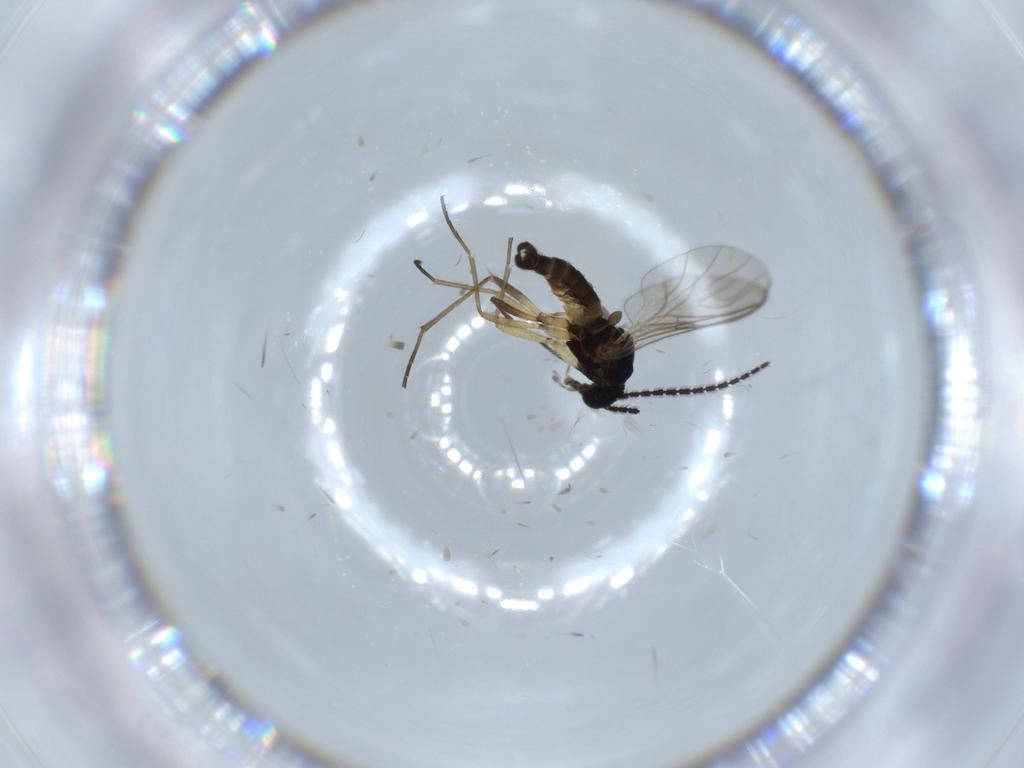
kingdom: Animalia
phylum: Arthropoda
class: Insecta
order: Diptera
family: Sciaridae
